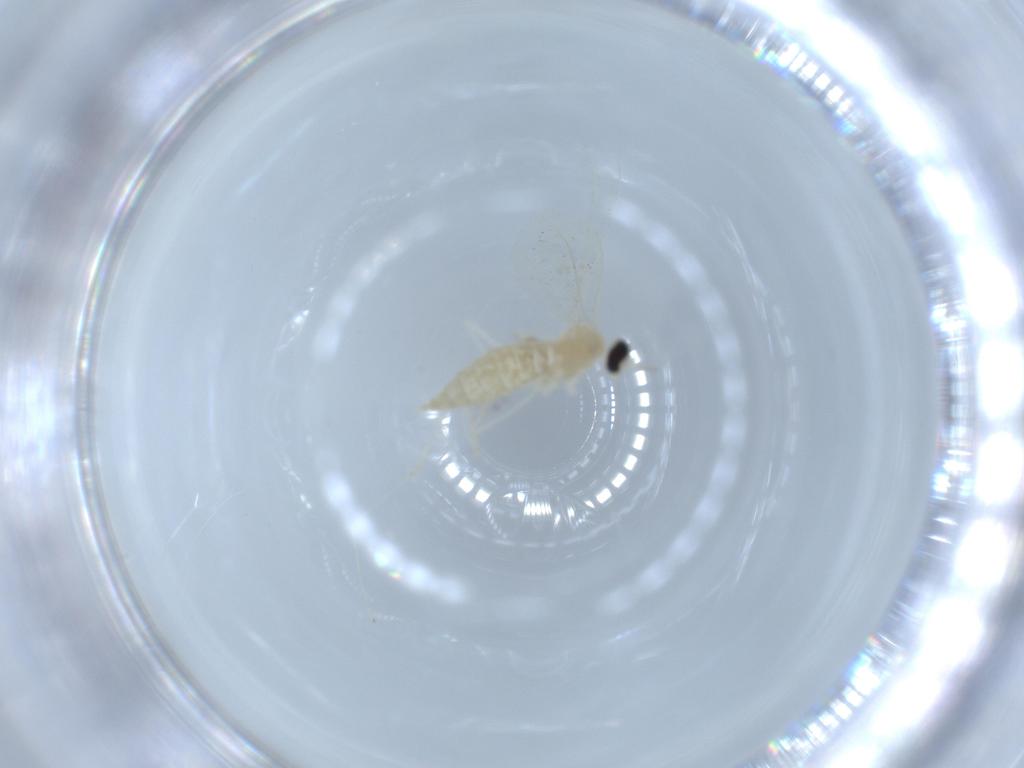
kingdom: Animalia
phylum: Arthropoda
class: Insecta
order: Diptera
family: Cecidomyiidae
